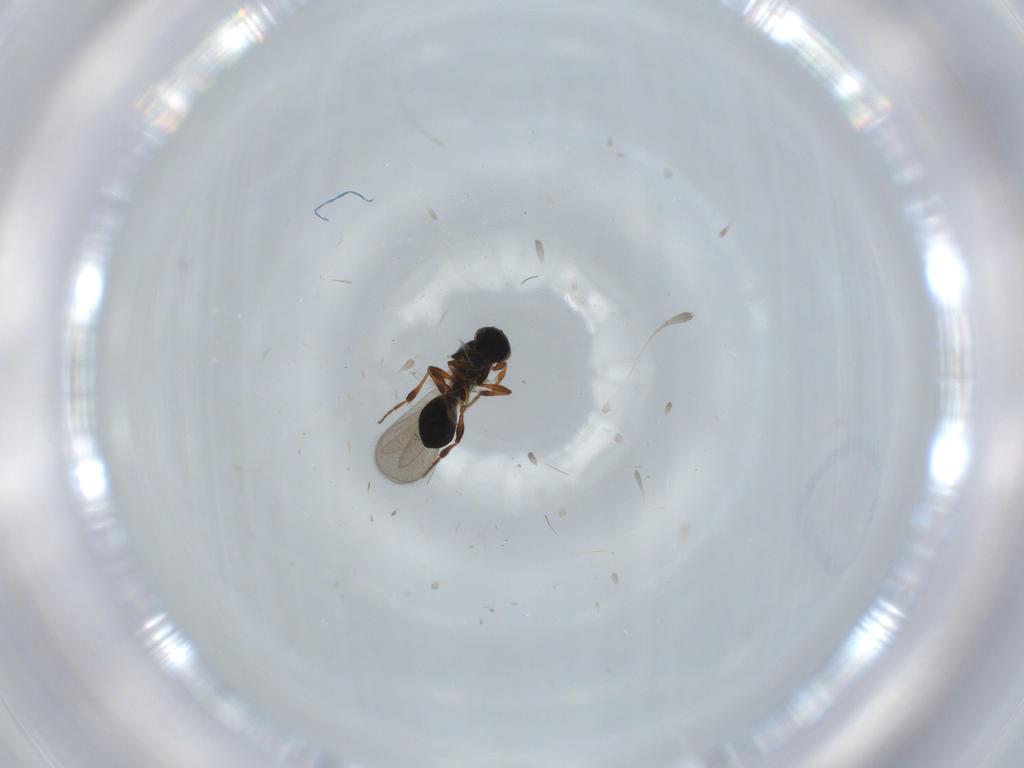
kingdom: Animalia
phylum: Arthropoda
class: Insecta
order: Hymenoptera
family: Platygastridae
